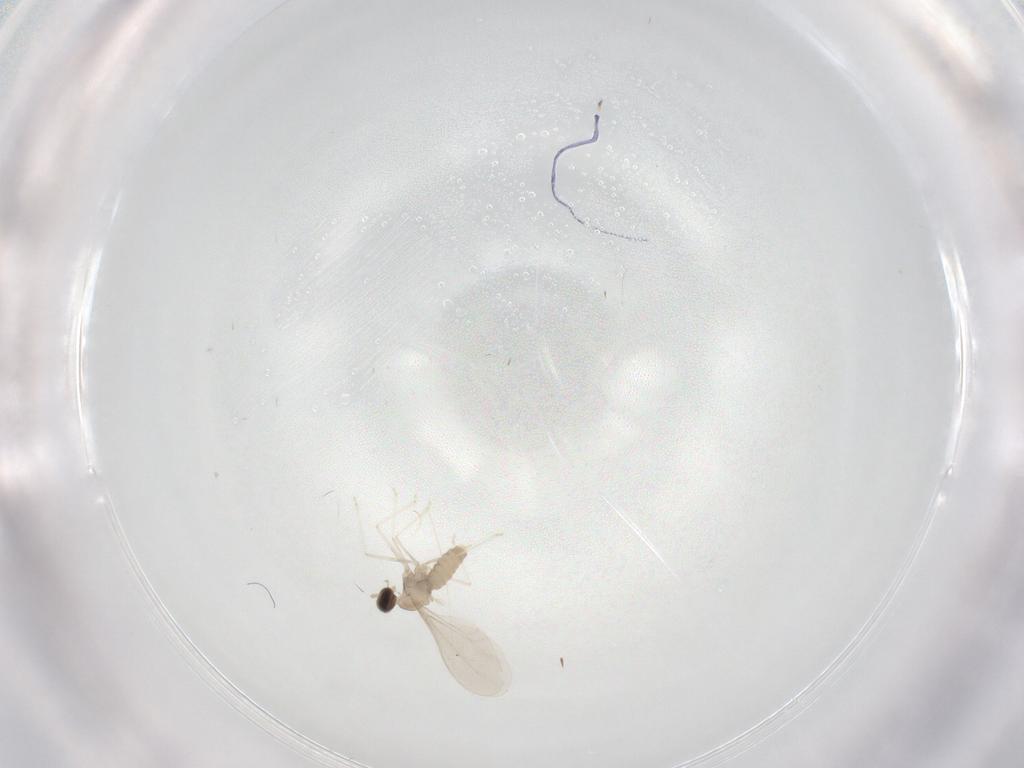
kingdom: Animalia
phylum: Arthropoda
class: Insecta
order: Diptera
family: Cecidomyiidae
